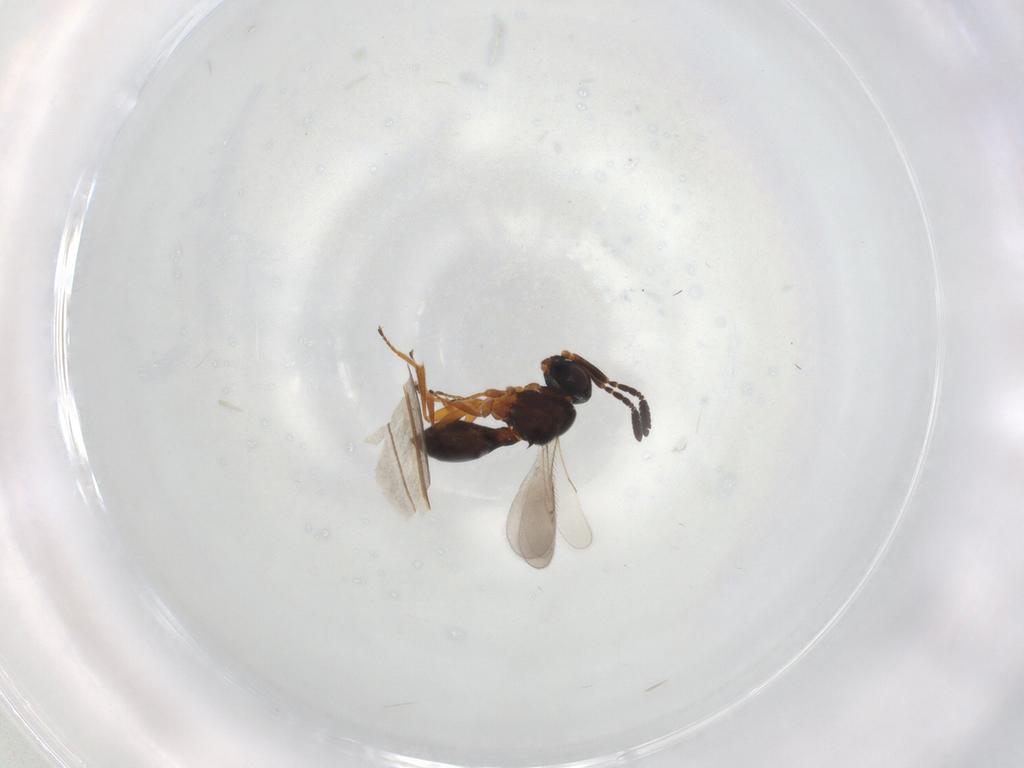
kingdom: Animalia
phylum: Arthropoda
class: Insecta
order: Hymenoptera
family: Scelionidae
